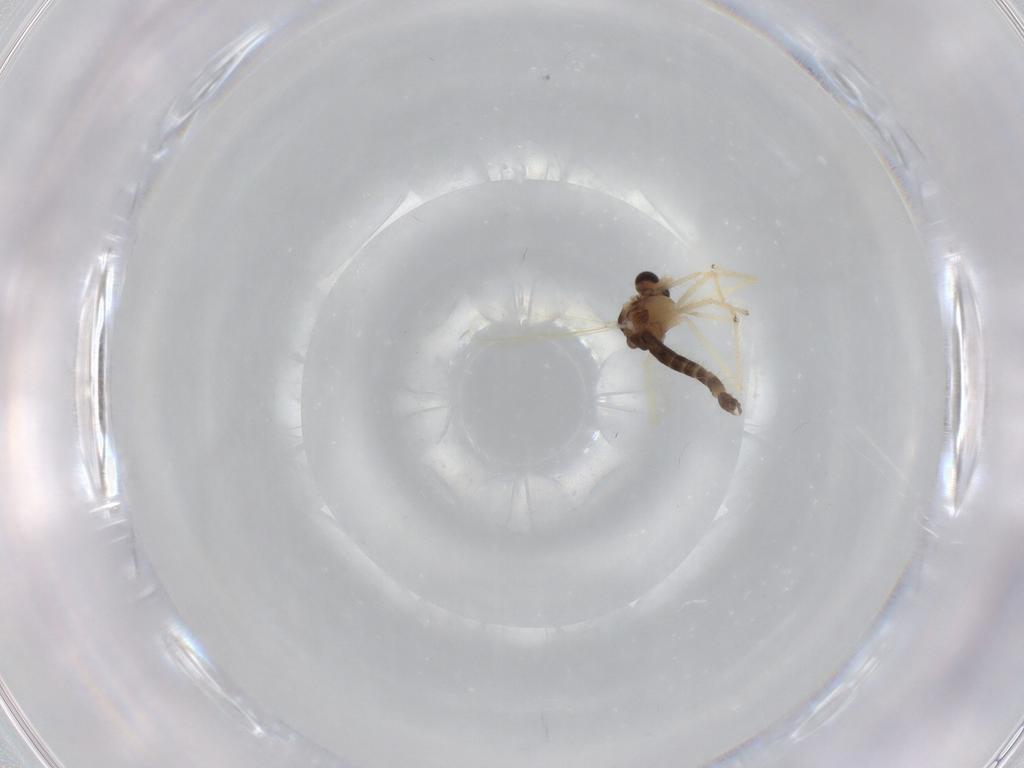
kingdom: Animalia
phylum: Arthropoda
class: Insecta
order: Diptera
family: Chironomidae
